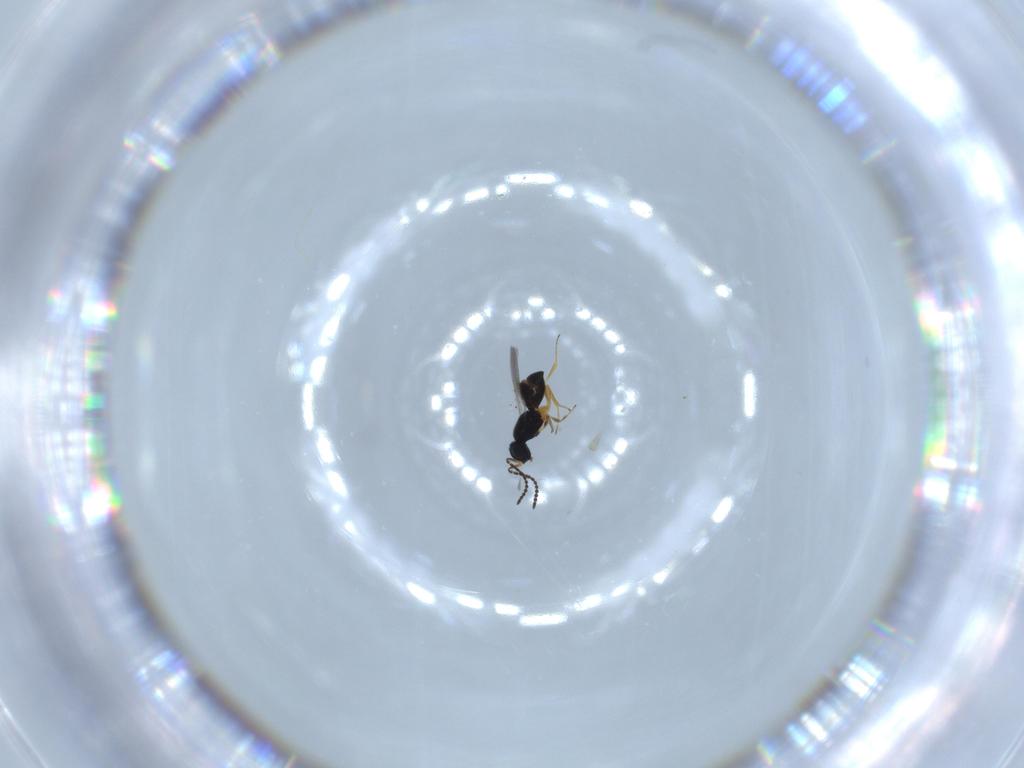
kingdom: Animalia
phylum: Arthropoda
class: Insecta
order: Hymenoptera
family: Scelionidae
